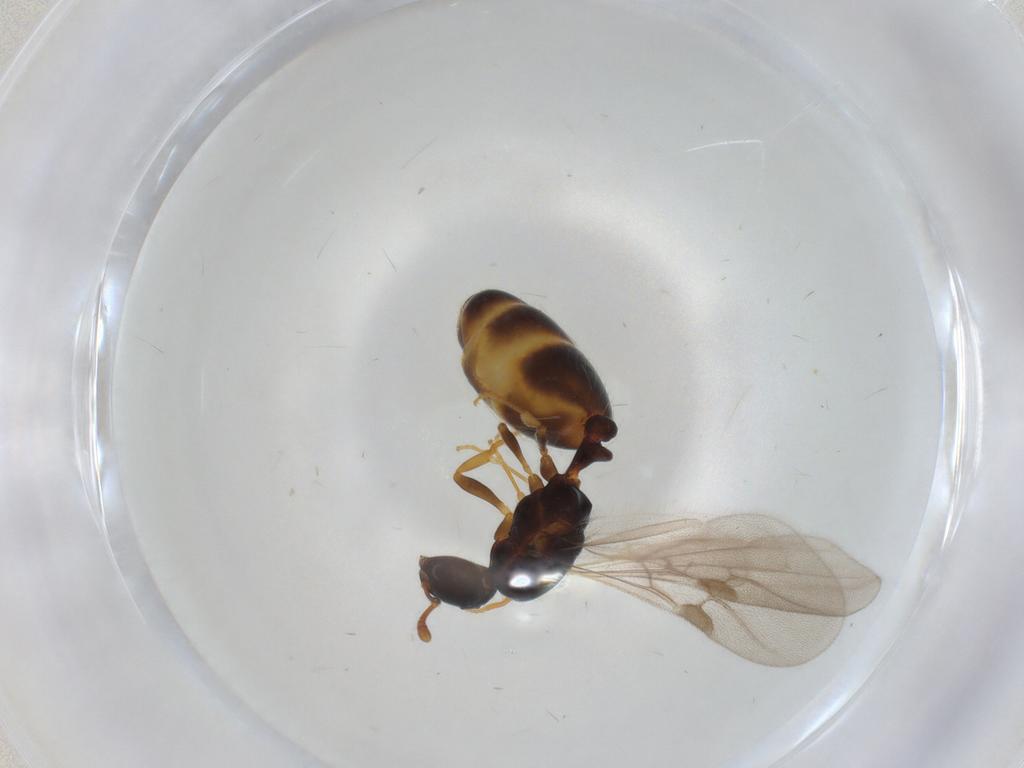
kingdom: Animalia
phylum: Arthropoda
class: Insecta
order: Hymenoptera
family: Formicidae
